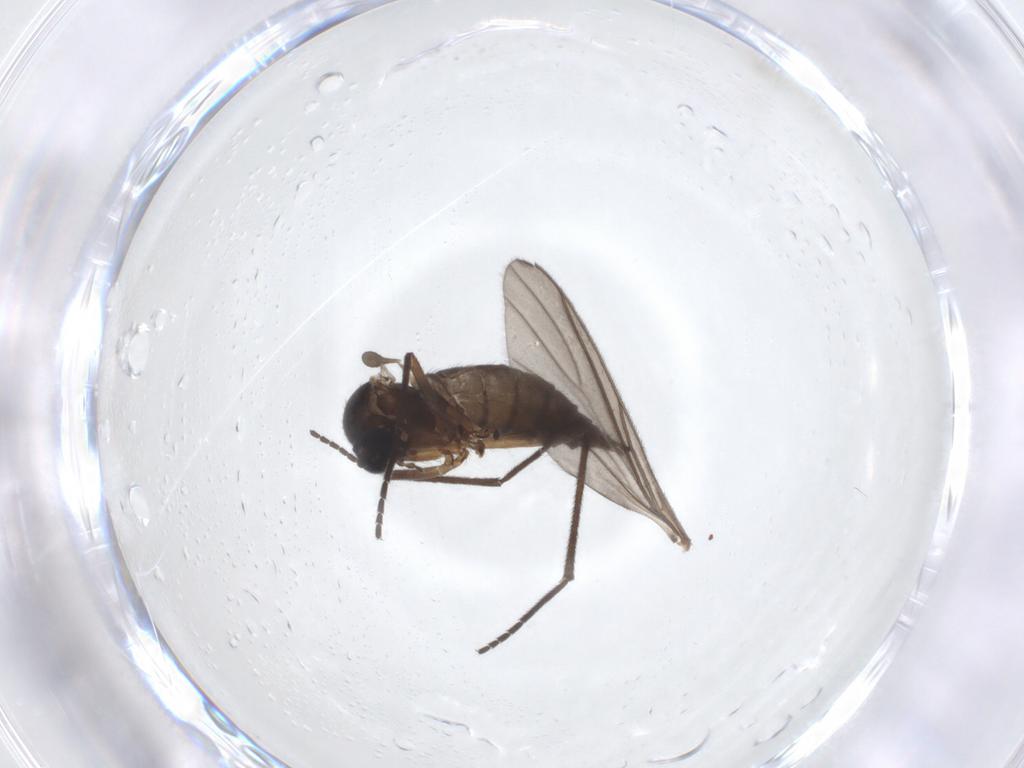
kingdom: Animalia
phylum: Arthropoda
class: Insecta
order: Diptera
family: Sciaridae
